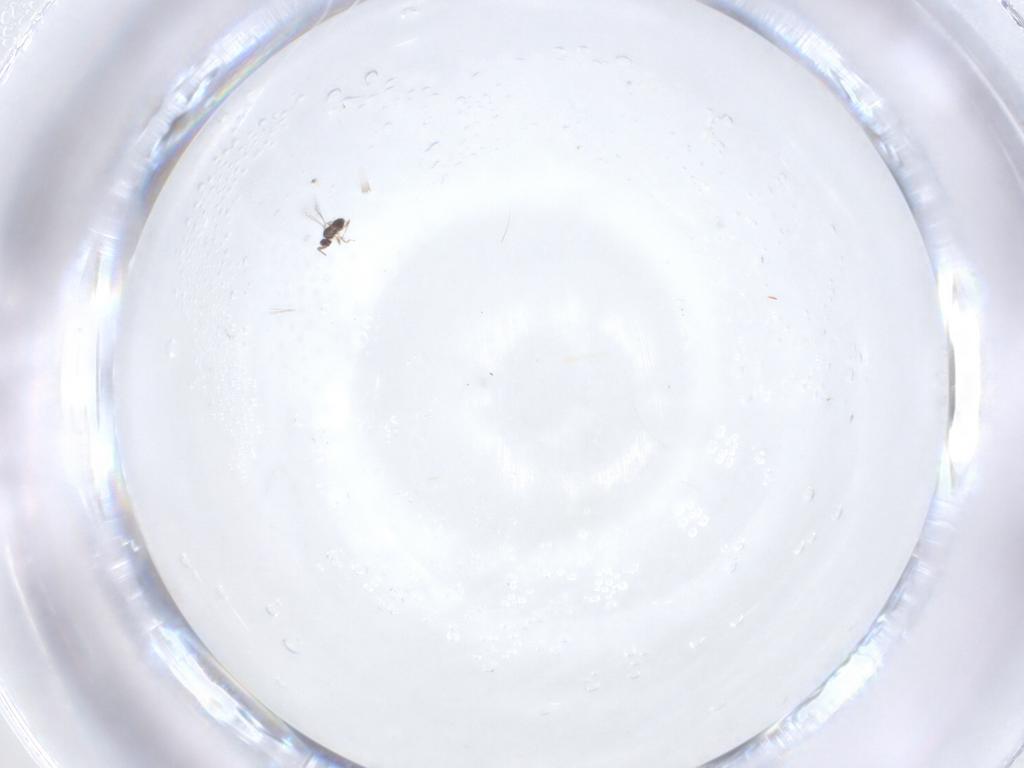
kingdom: Animalia
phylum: Arthropoda
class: Insecta
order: Hymenoptera
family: Mymaridae
